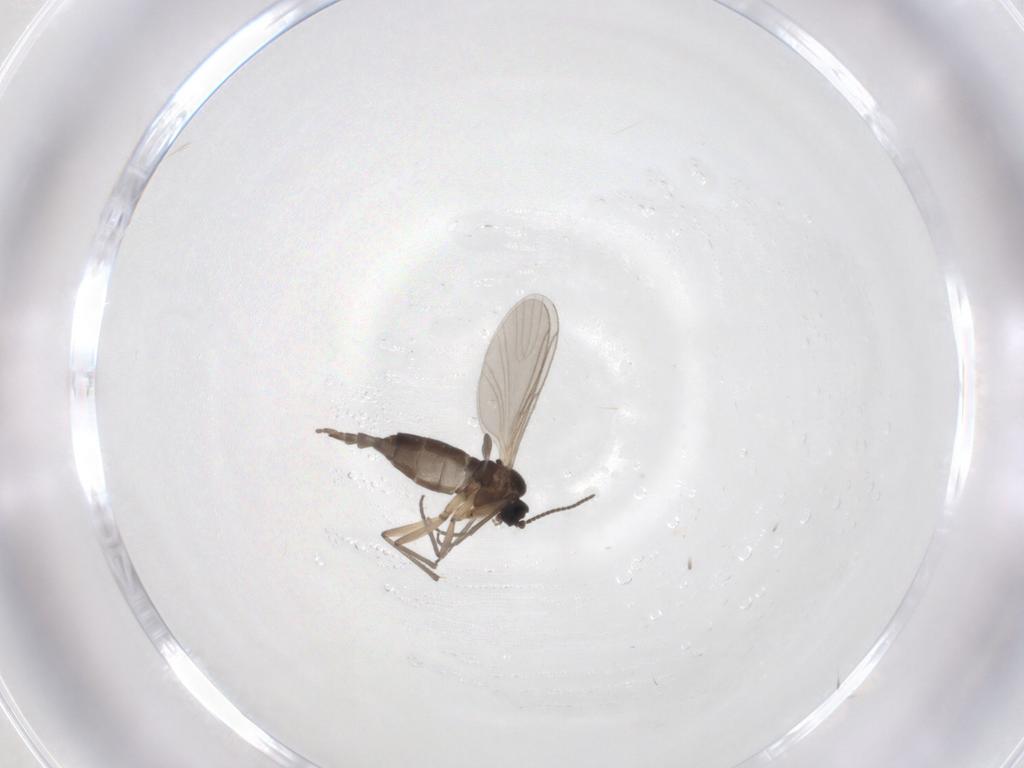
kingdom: Animalia
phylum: Arthropoda
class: Insecta
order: Diptera
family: Sciaridae
